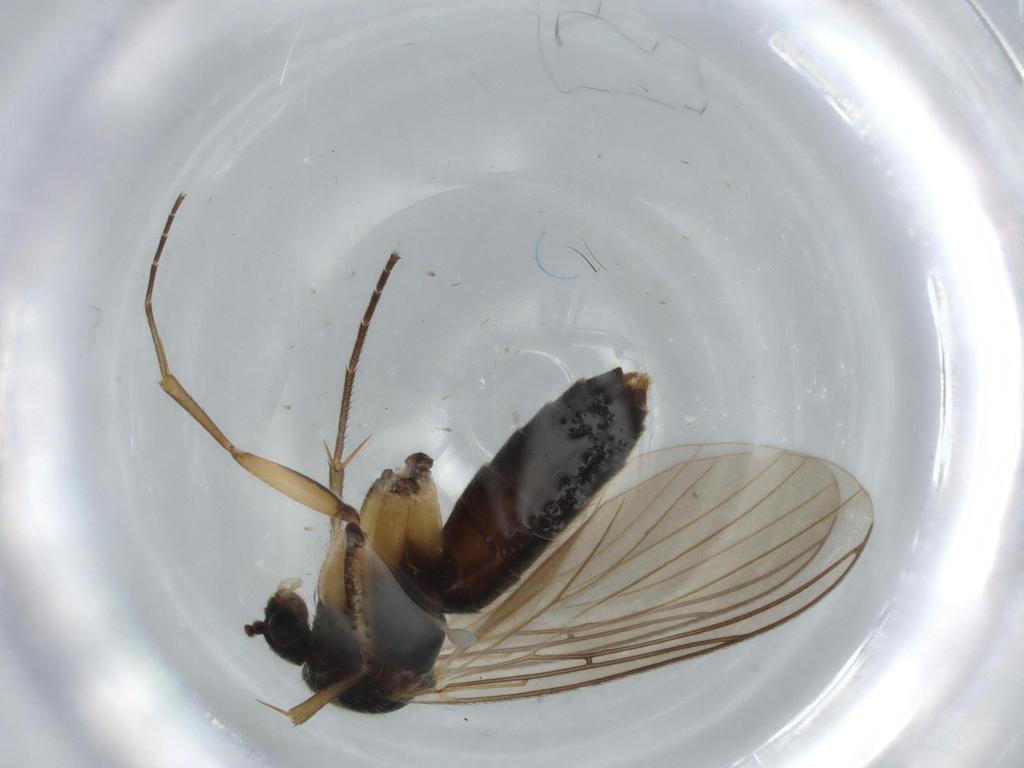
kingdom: Animalia
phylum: Arthropoda
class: Insecta
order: Diptera
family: Mycetophilidae
